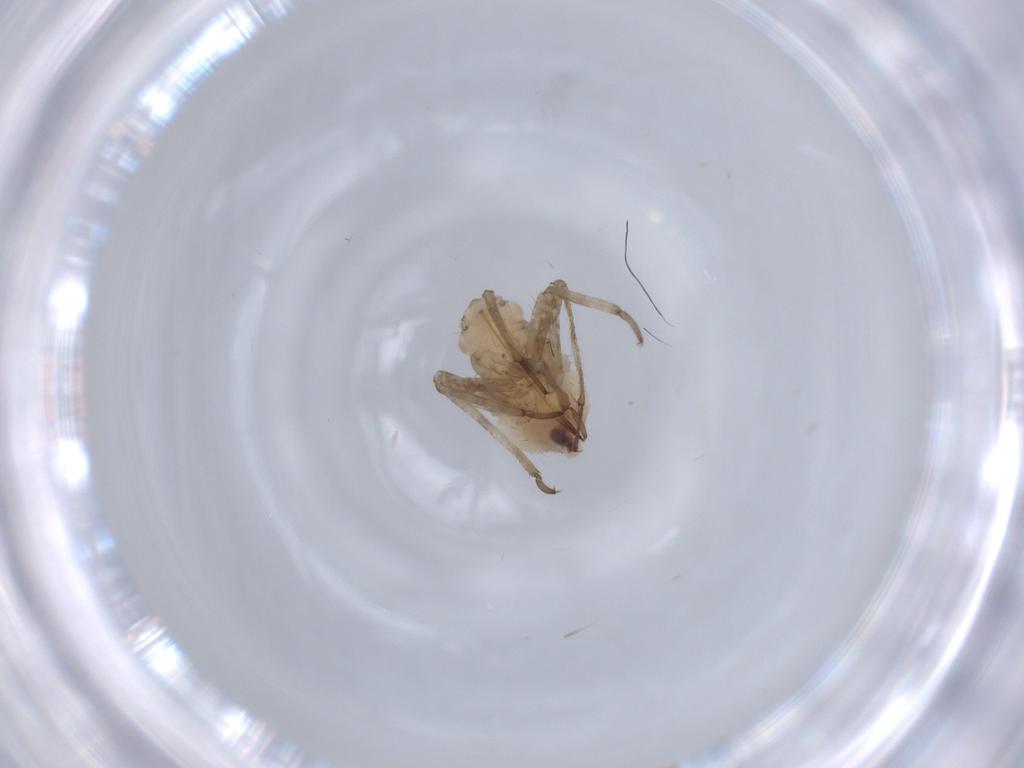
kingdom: Animalia
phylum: Arthropoda
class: Insecta
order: Hemiptera
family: Miridae
